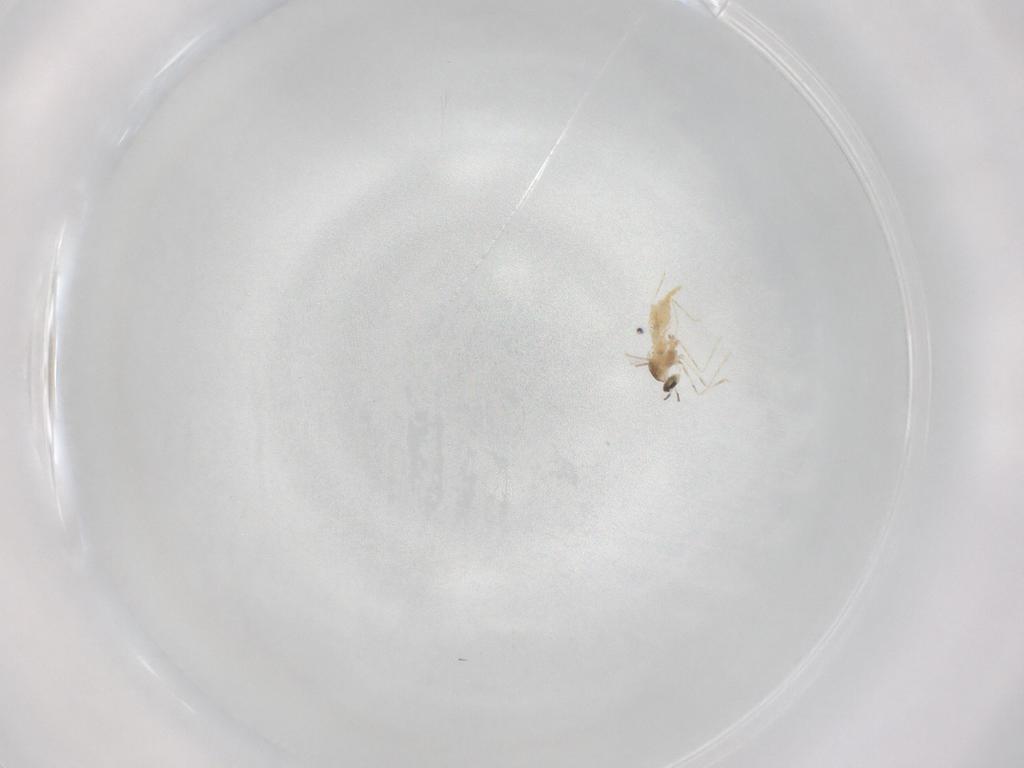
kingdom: Animalia
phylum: Arthropoda
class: Insecta
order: Diptera
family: Cecidomyiidae
